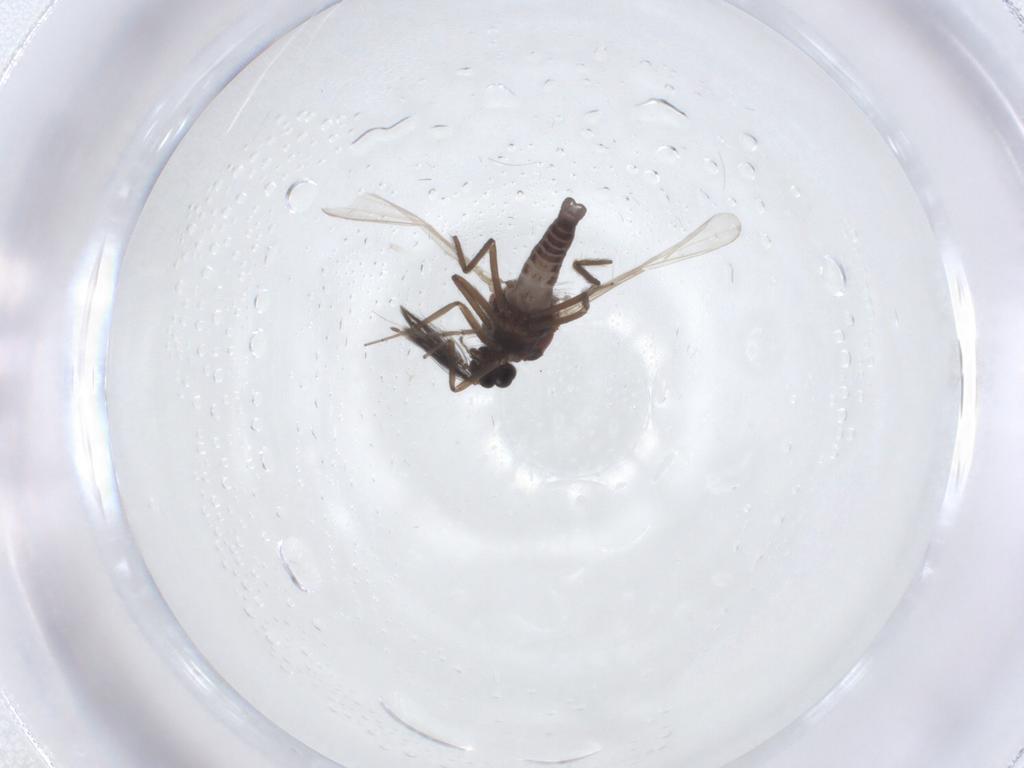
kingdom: Animalia
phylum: Arthropoda
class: Insecta
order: Diptera
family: Ceratopogonidae
